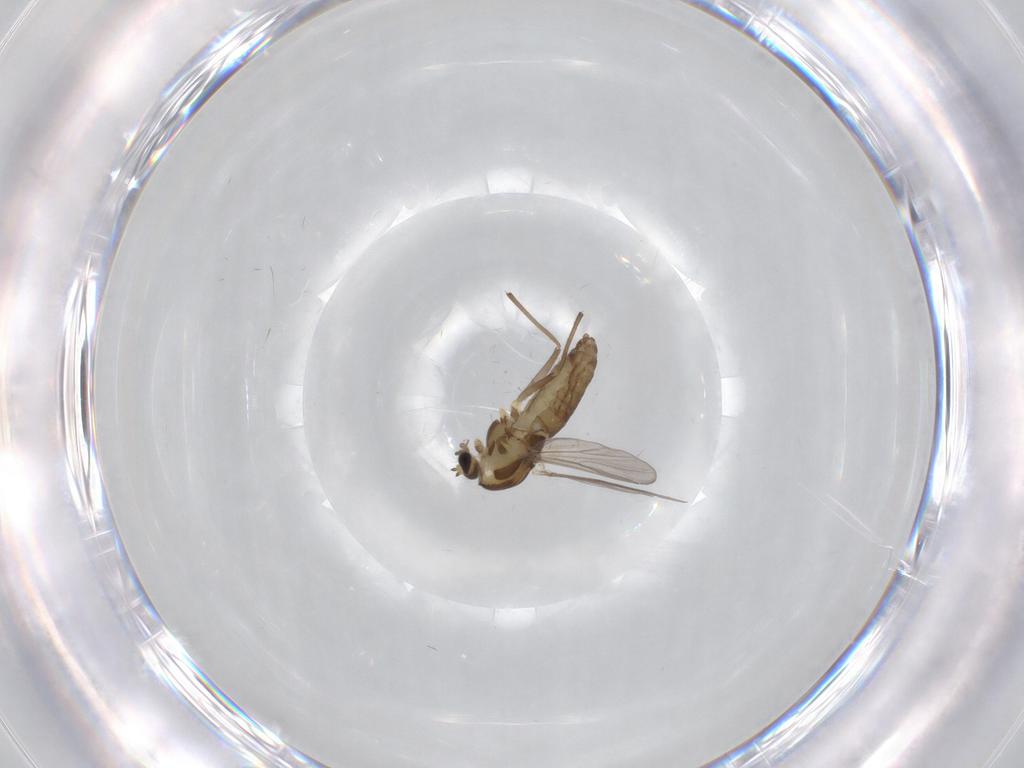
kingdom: Animalia
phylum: Arthropoda
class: Insecta
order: Diptera
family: Chironomidae
